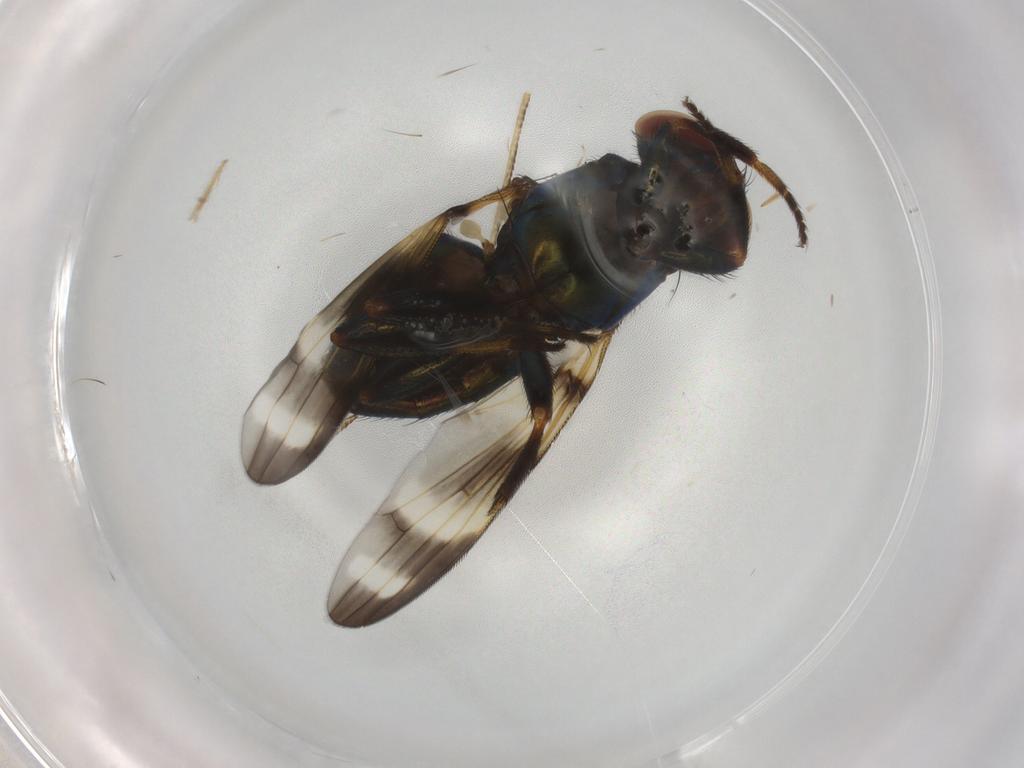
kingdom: Animalia
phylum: Arthropoda
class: Insecta
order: Diptera
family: Ulidiidae
